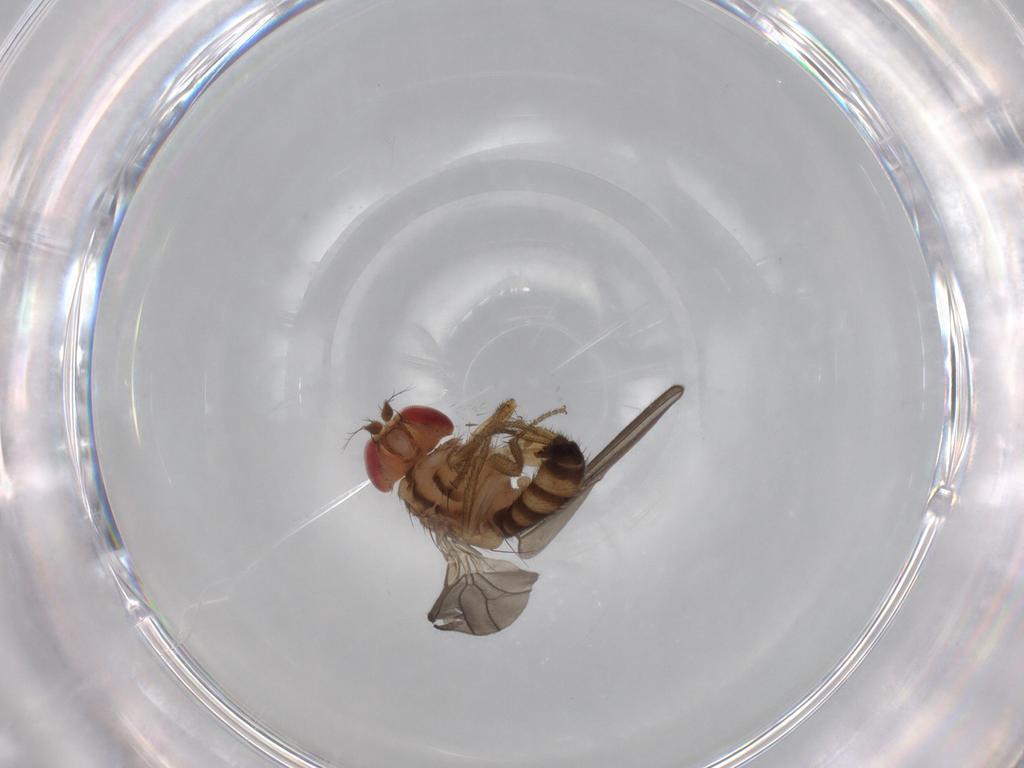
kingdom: Animalia
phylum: Arthropoda
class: Insecta
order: Diptera
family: Drosophilidae
